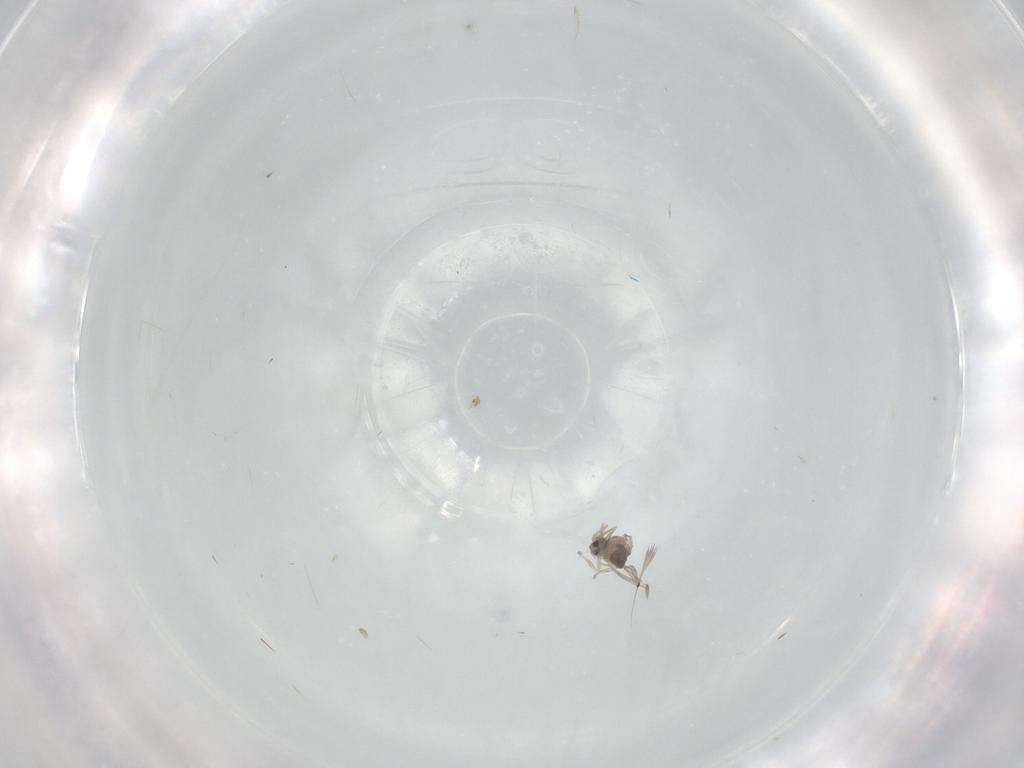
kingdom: Animalia
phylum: Arthropoda
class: Insecta
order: Diptera
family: Cecidomyiidae
